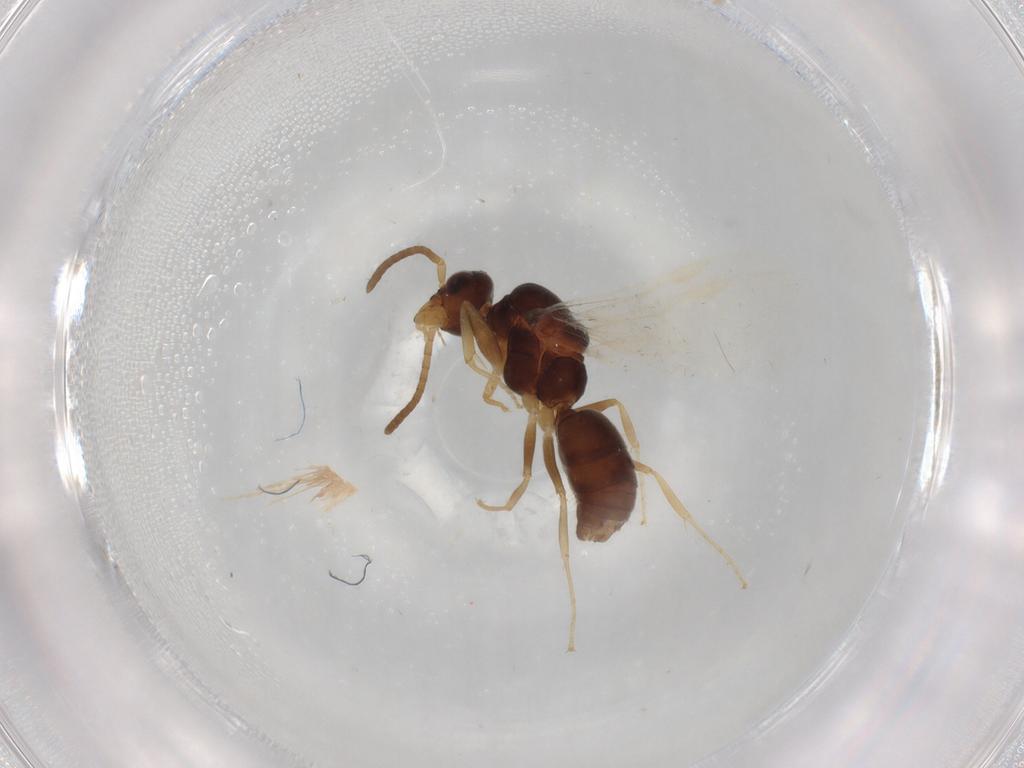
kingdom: Animalia
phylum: Arthropoda
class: Insecta
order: Hymenoptera
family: Formicidae
